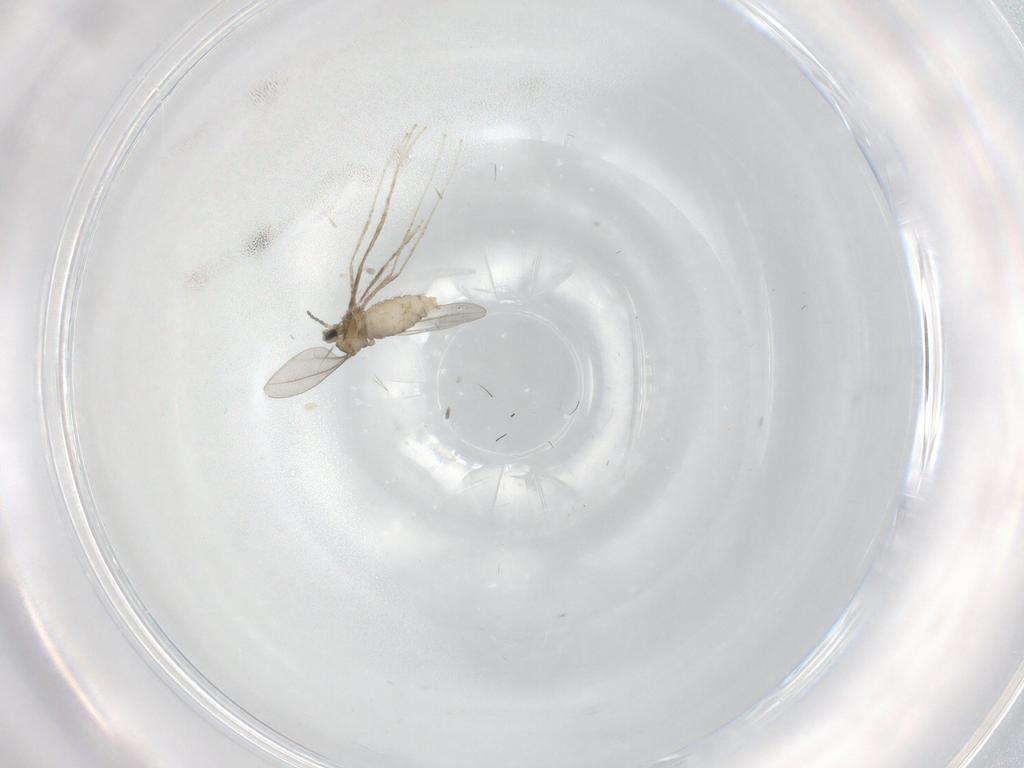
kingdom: Animalia
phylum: Arthropoda
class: Insecta
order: Diptera
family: Cecidomyiidae
